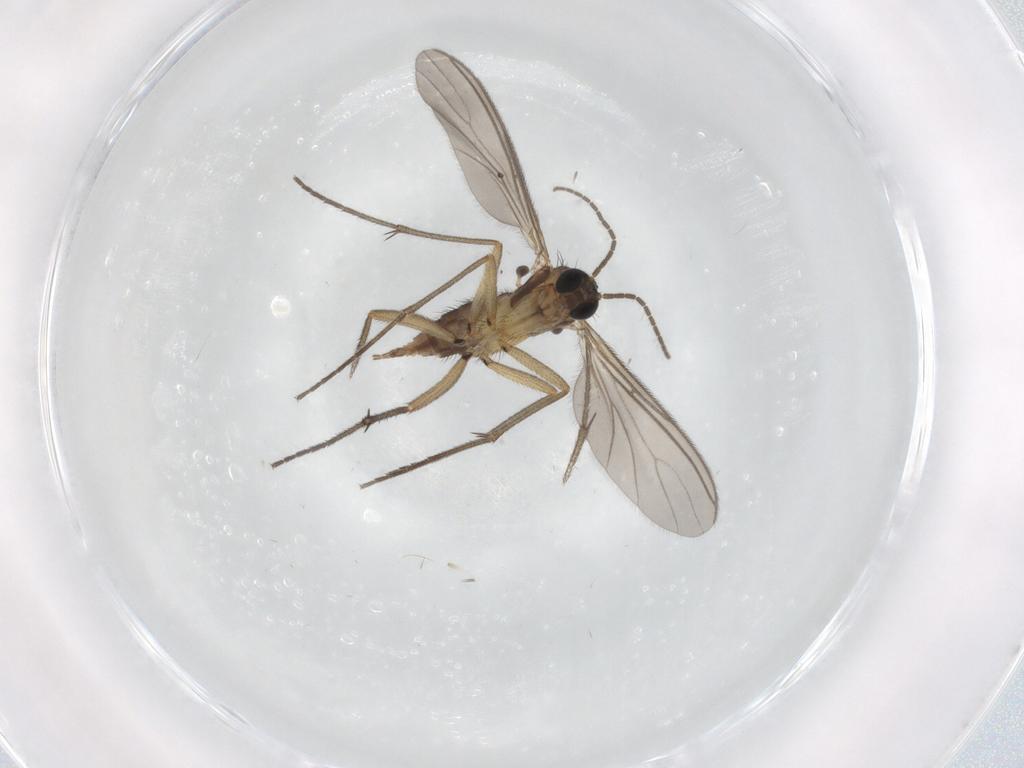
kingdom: Animalia
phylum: Arthropoda
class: Insecta
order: Diptera
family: Sciaridae
